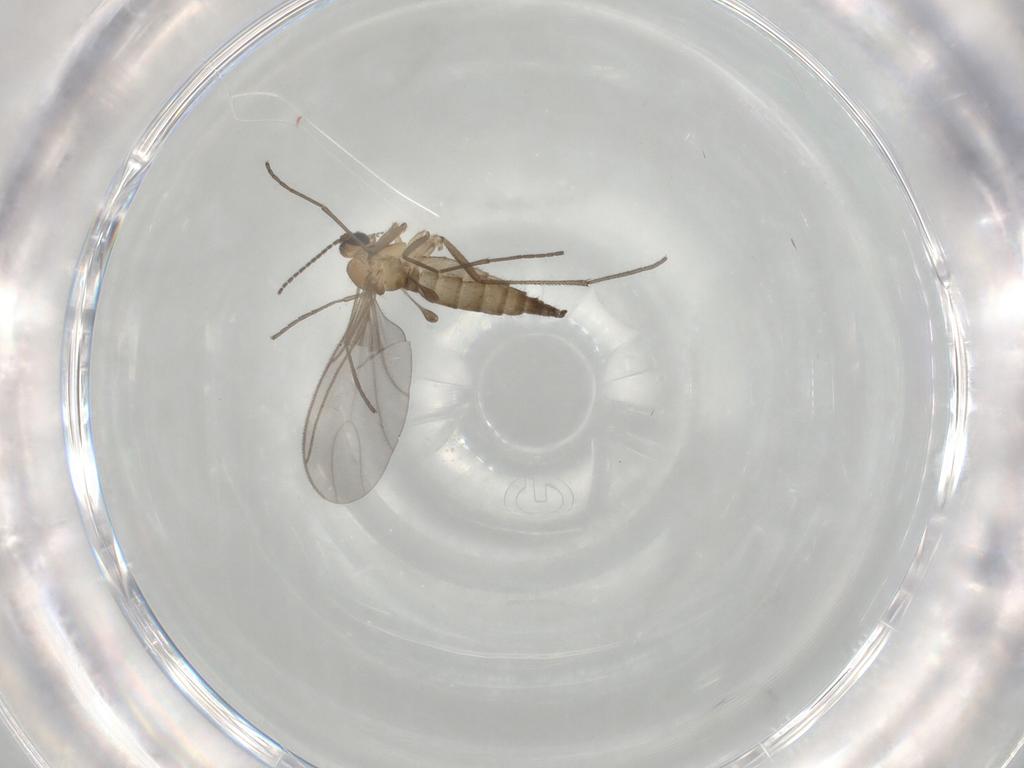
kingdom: Animalia
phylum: Arthropoda
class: Insecta
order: Diptera
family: Sciaridae
